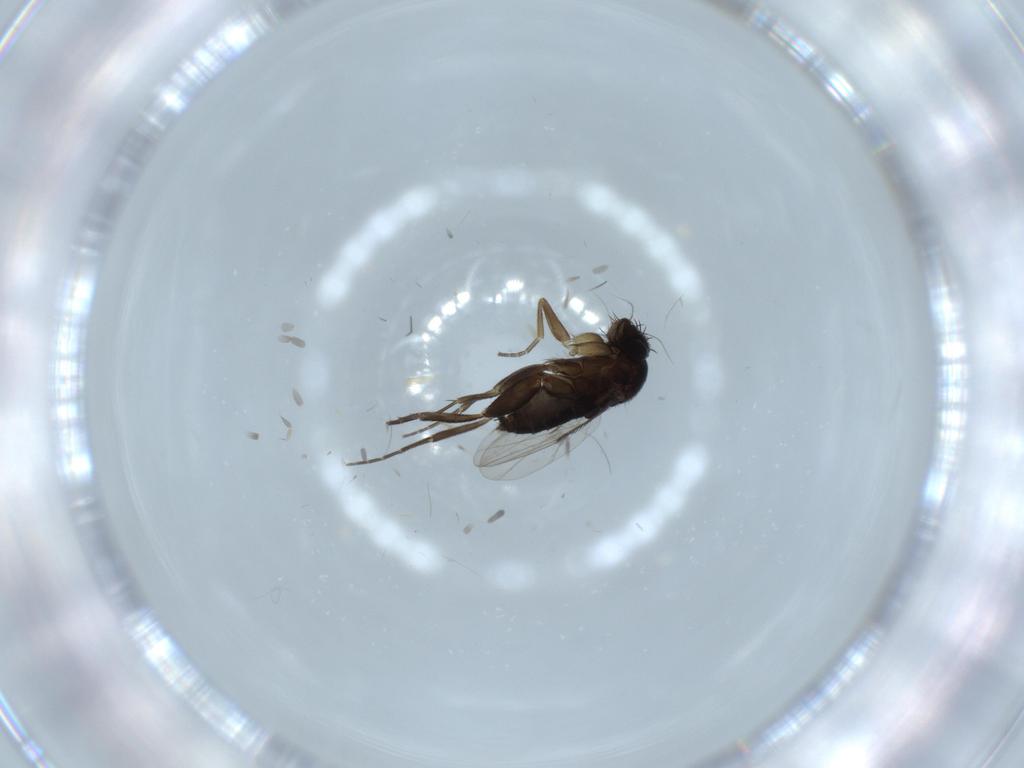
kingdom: Animalia
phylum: Arthropoda
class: Insecta
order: Diptera
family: Phoridae
